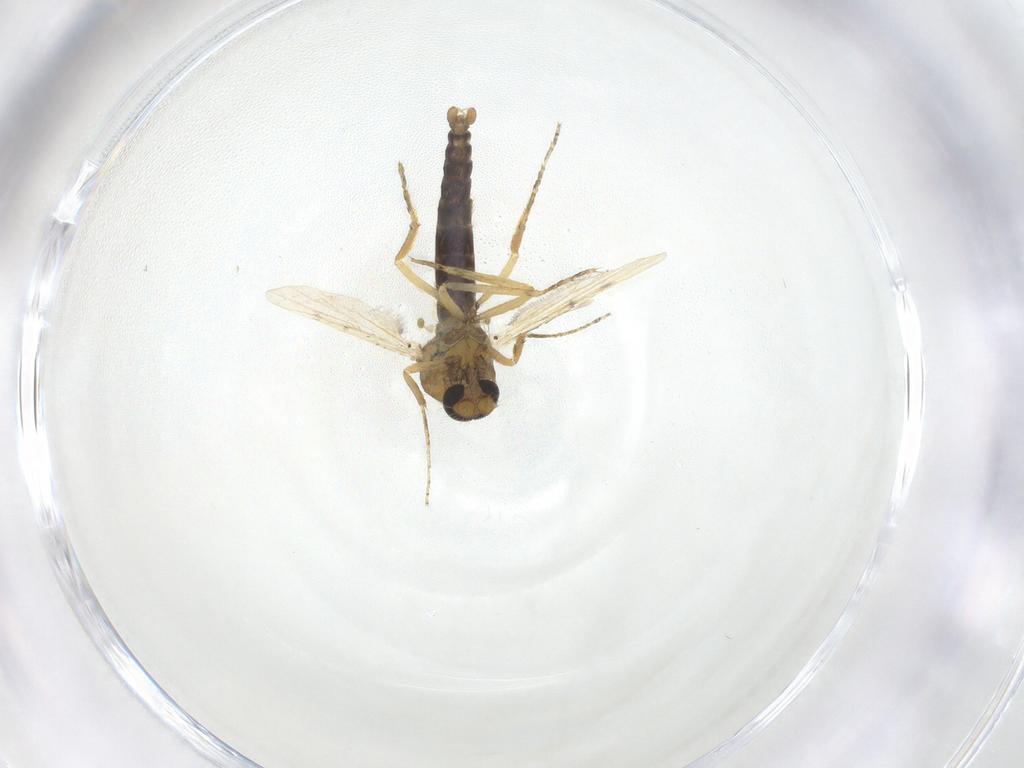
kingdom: Animalia
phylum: Arthropoda
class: Insecta
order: Diptera
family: Ceratopogonidae
